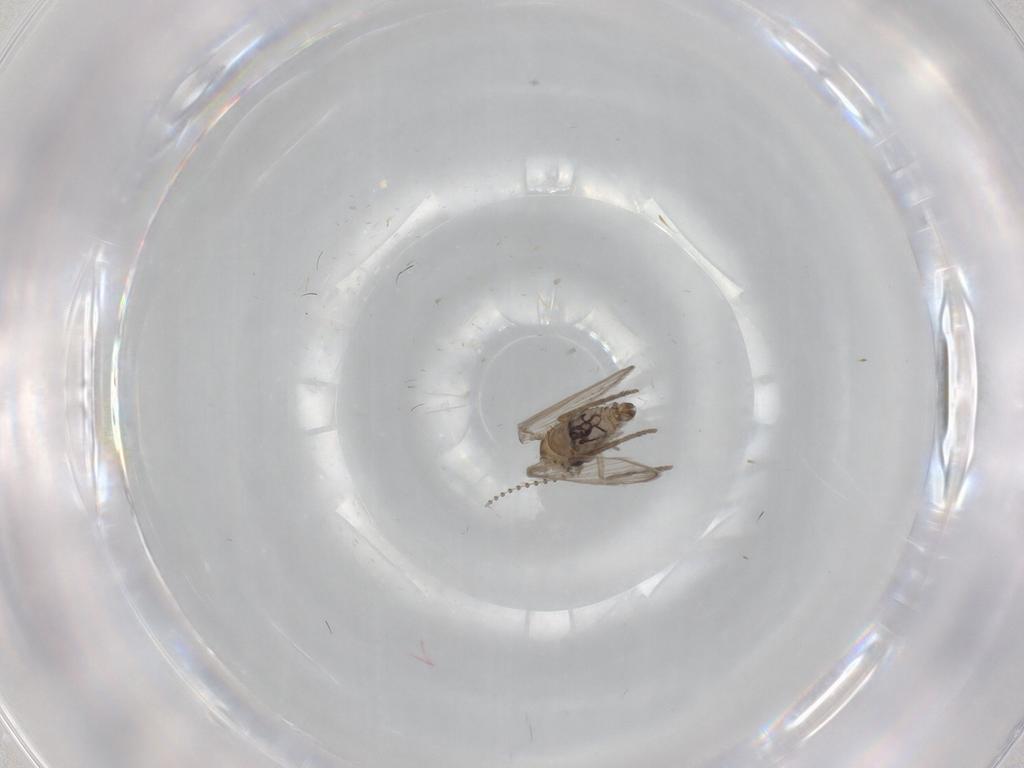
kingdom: Animalia
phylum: Arthropoda
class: Insecta
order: Diptera
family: Psychodidae
